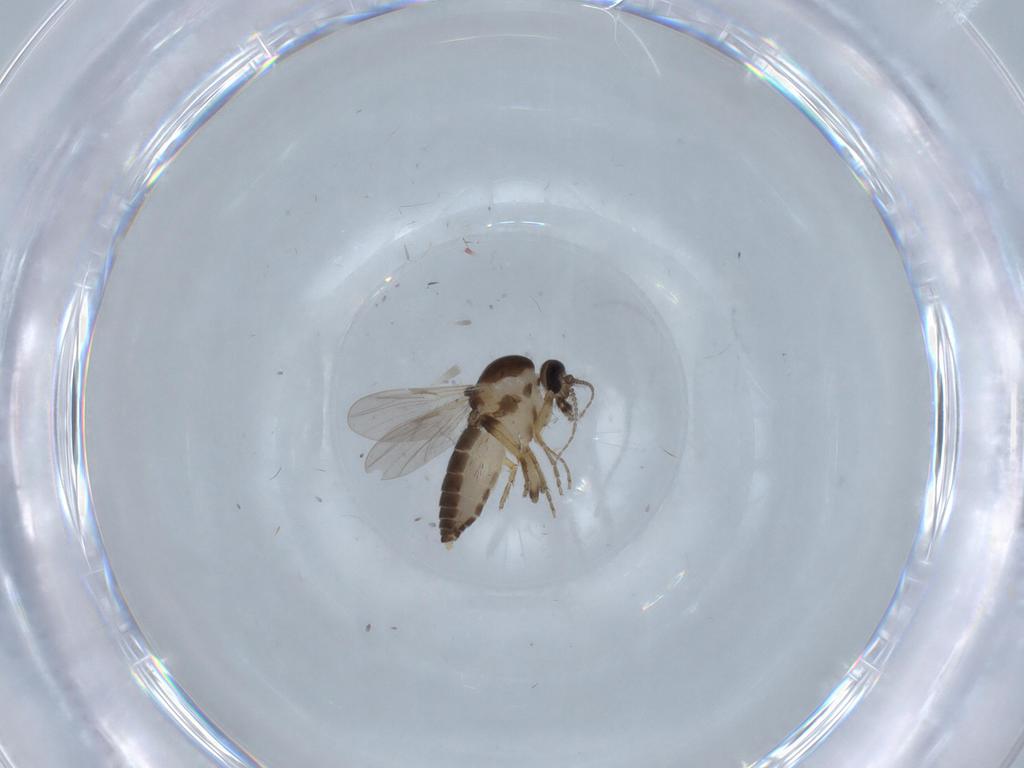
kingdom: Animalia
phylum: Arthropoda
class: Insecta
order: Diptera
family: Ceratopogonidae
